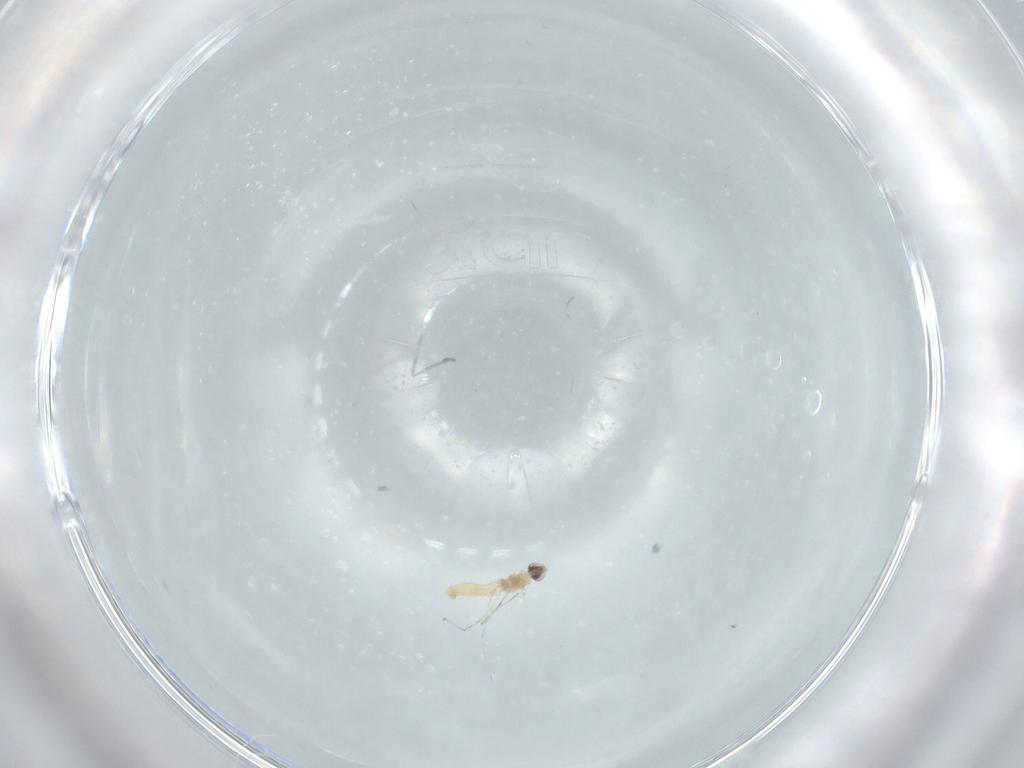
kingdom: Animalia
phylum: Arthropoda
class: Insecta
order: Diptera
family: Cecidomyiidae
